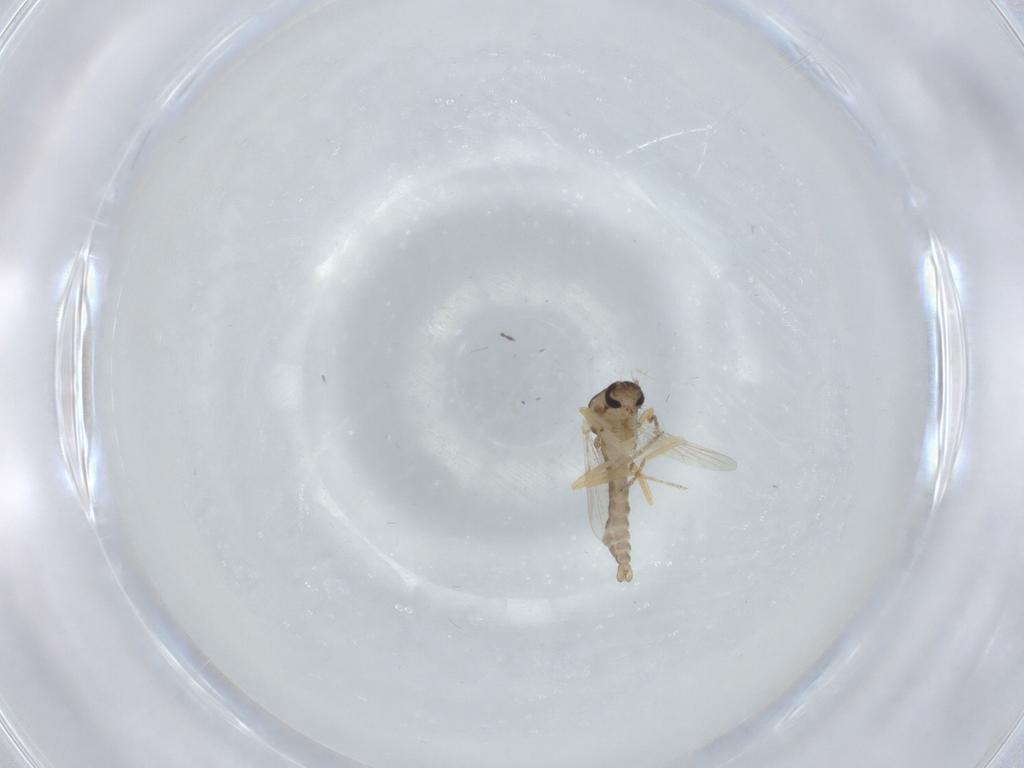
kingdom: Animalia
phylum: Arthropoda
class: Insecta
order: Diptera
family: Ceratopogonidae
